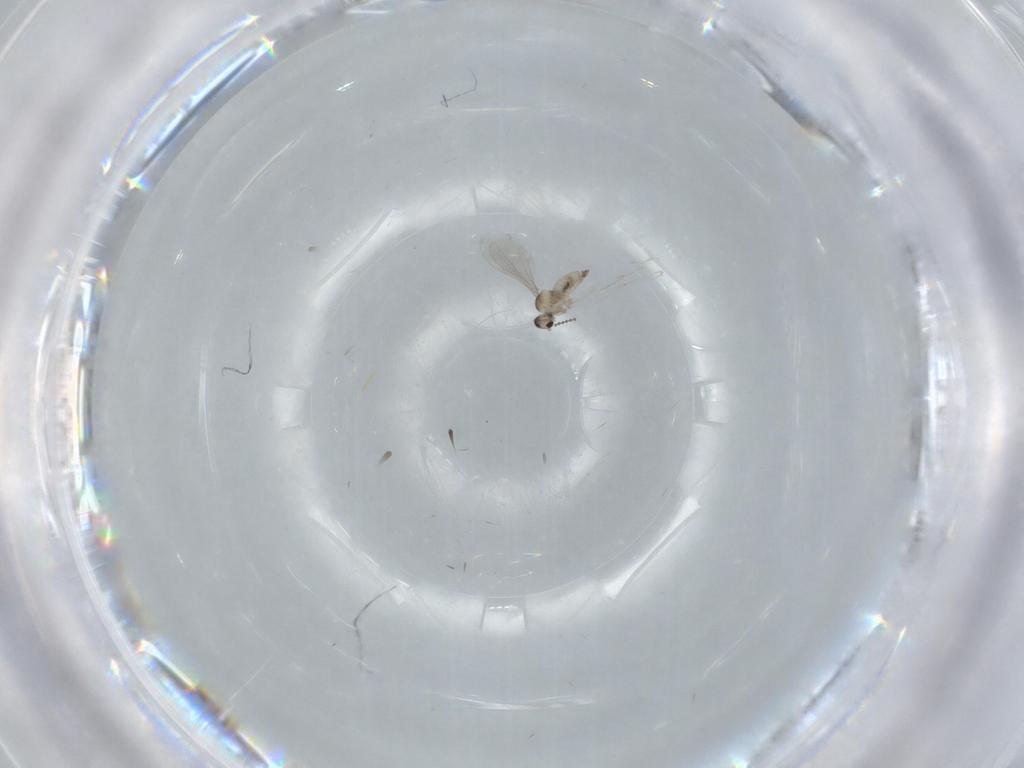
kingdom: Animalia
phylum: Arthropoda
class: Insecta
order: Diptera
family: Cecidomyiidae
